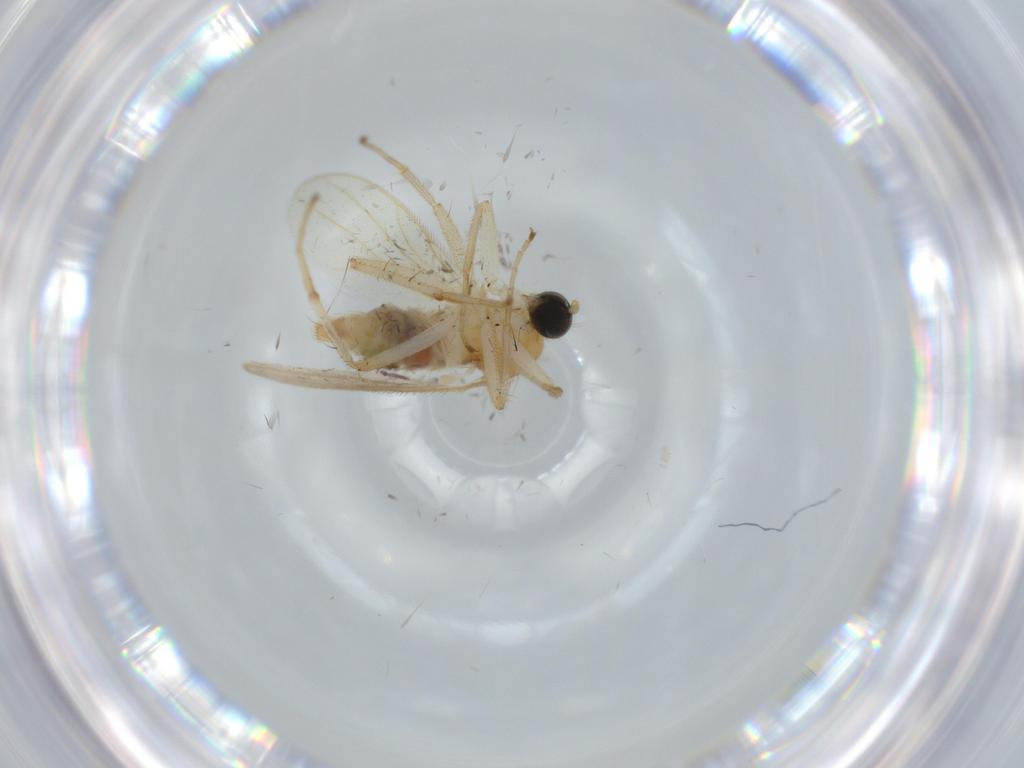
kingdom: Animalia
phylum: Arthropoda
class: Insecta
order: Diptera
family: Hybotidae
